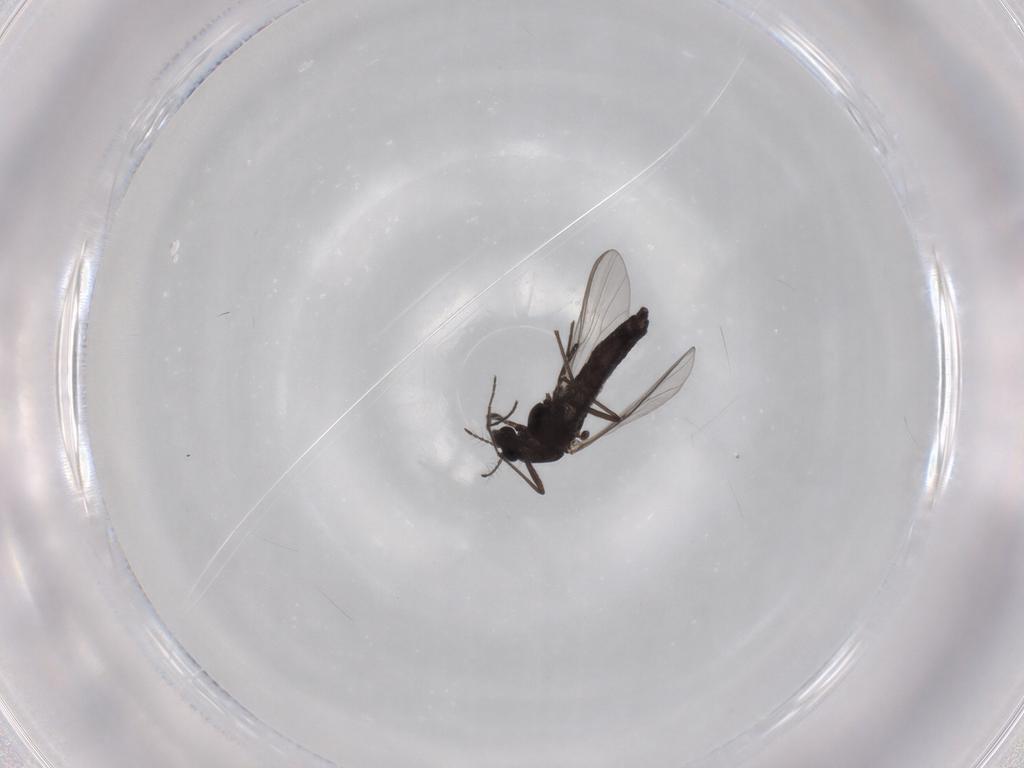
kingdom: Animalia
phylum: Arthropoda
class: Insecta
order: Diptera
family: Chironomidae
